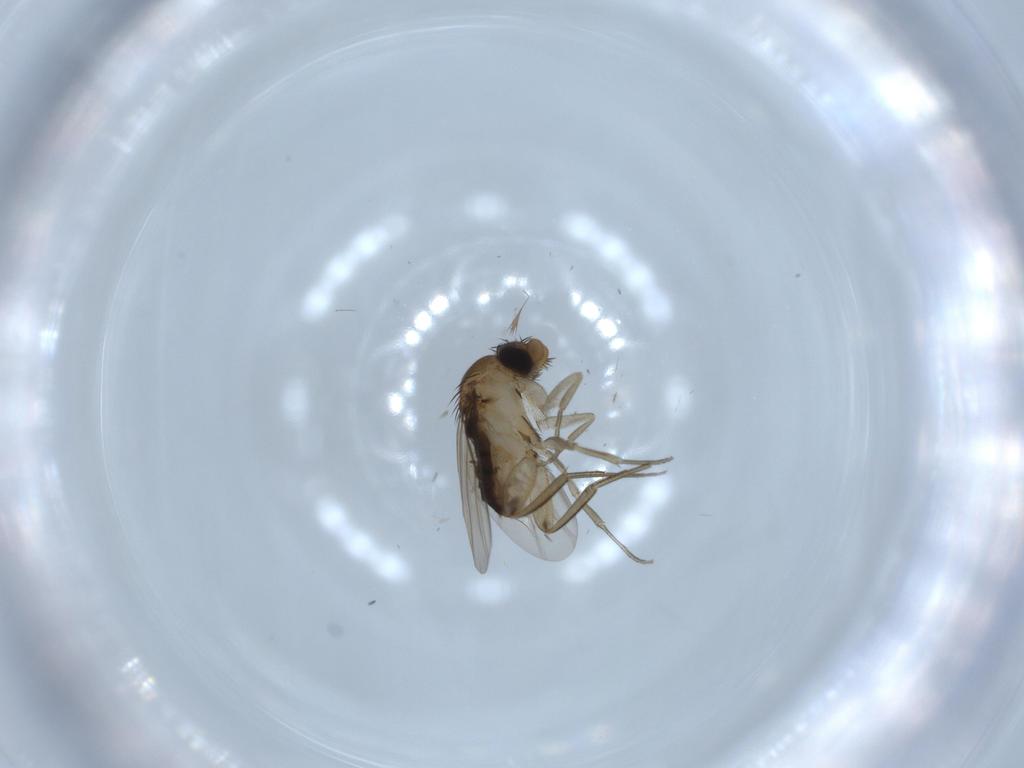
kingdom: Animalia
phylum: Arthropoda
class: Insecta
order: Diptera
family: Phoridae
